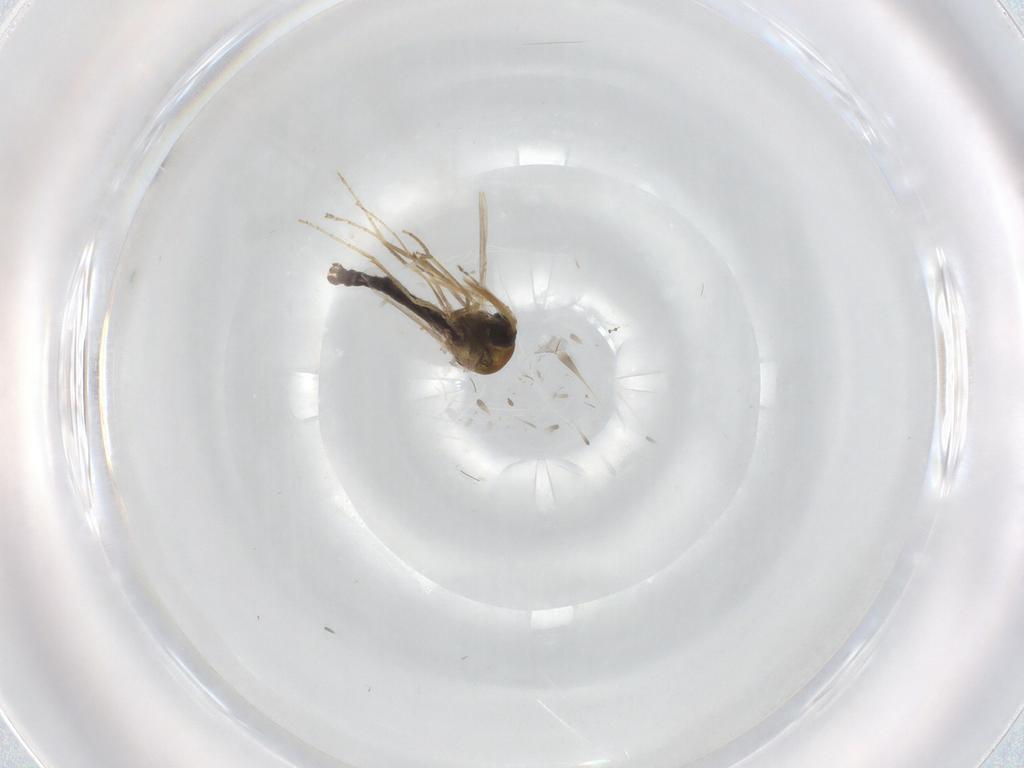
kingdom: Animalia
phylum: Arthropoda
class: Insecta
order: Diptera
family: Ceratopogonidae
